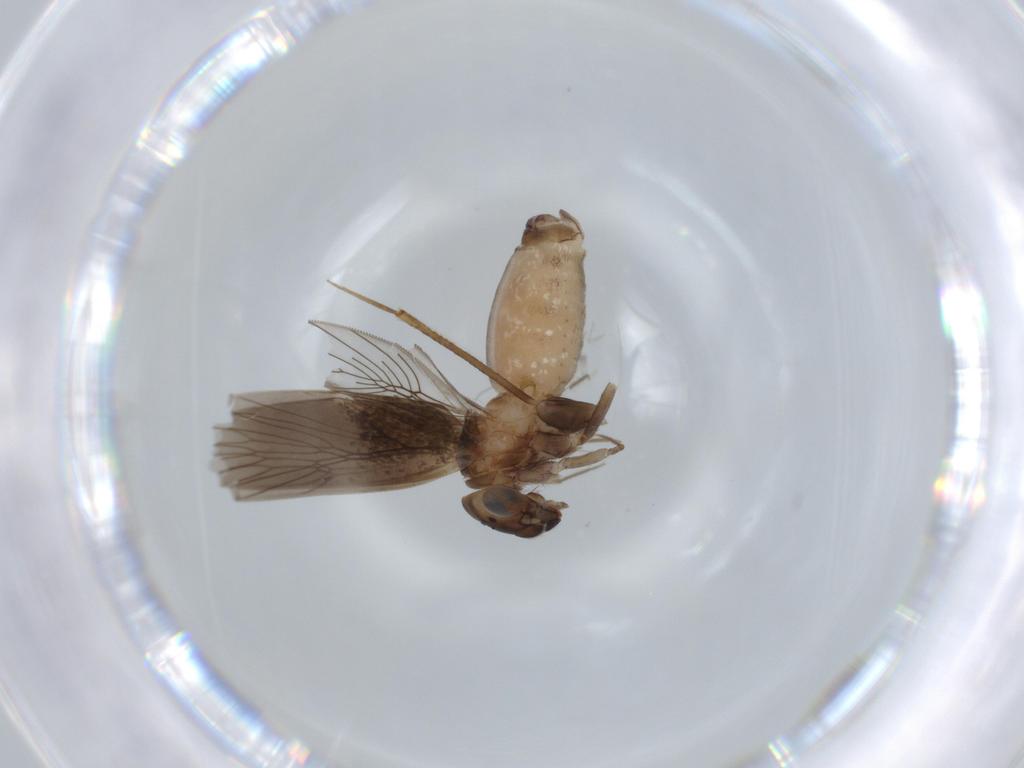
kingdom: Animalia
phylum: Arthropoda
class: Insecta
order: Psocodea
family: Lepidopsocidae
